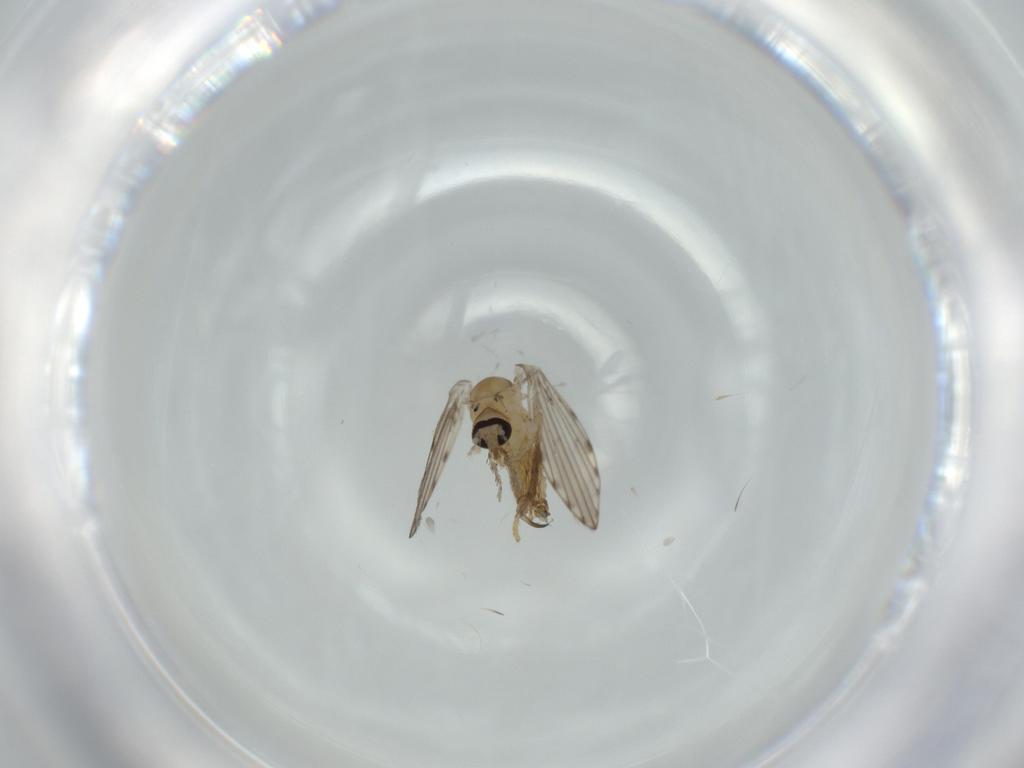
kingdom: Animalia
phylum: Arthropoda
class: Insecta
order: Diptera
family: Psychodidae
